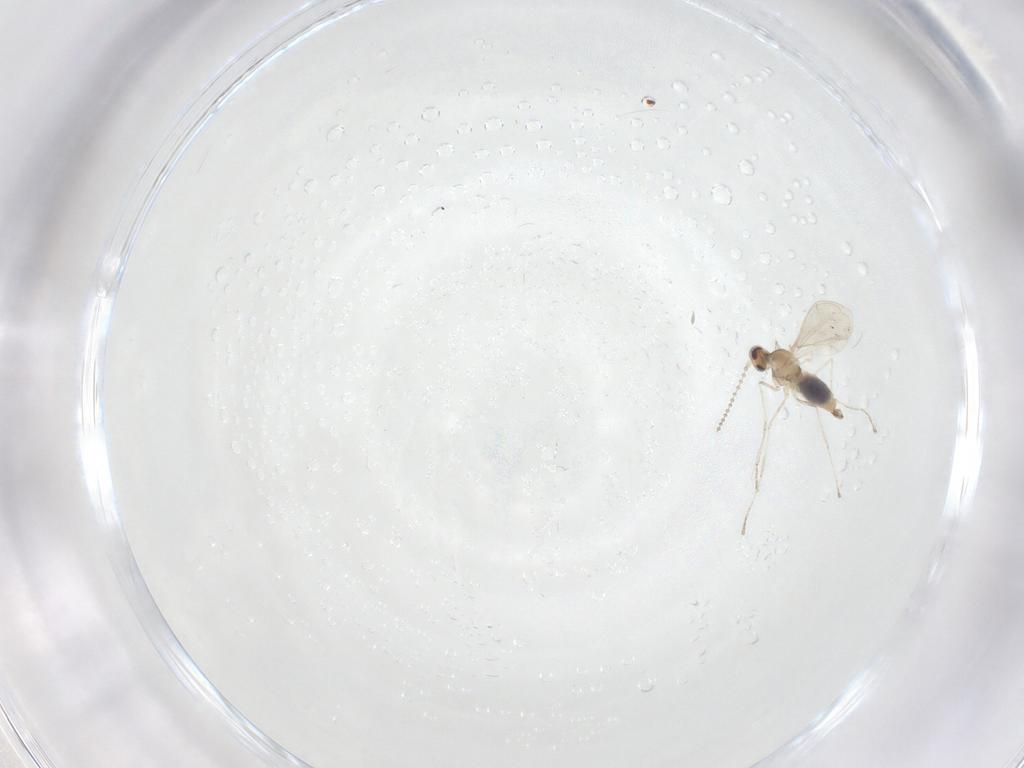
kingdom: Animalia
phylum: Arthropoda
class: Insecta
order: Diptera
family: Limoniidae
